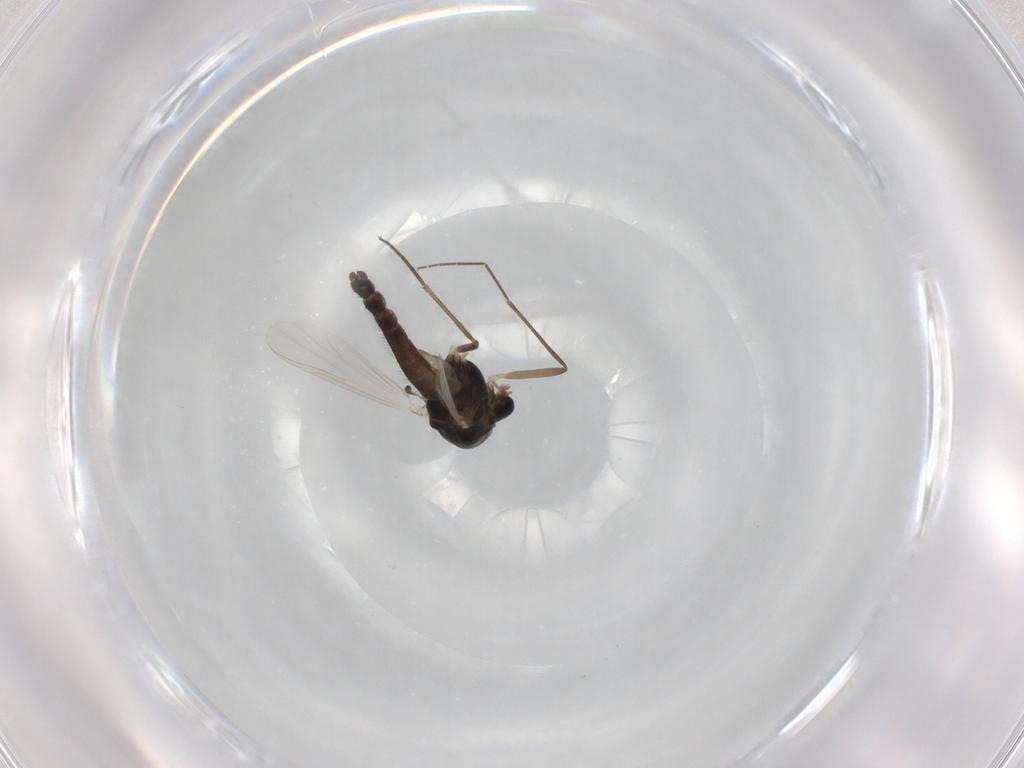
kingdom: Animalia
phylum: Arthropoda
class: Insecta
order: Diptera
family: Chironomidae
